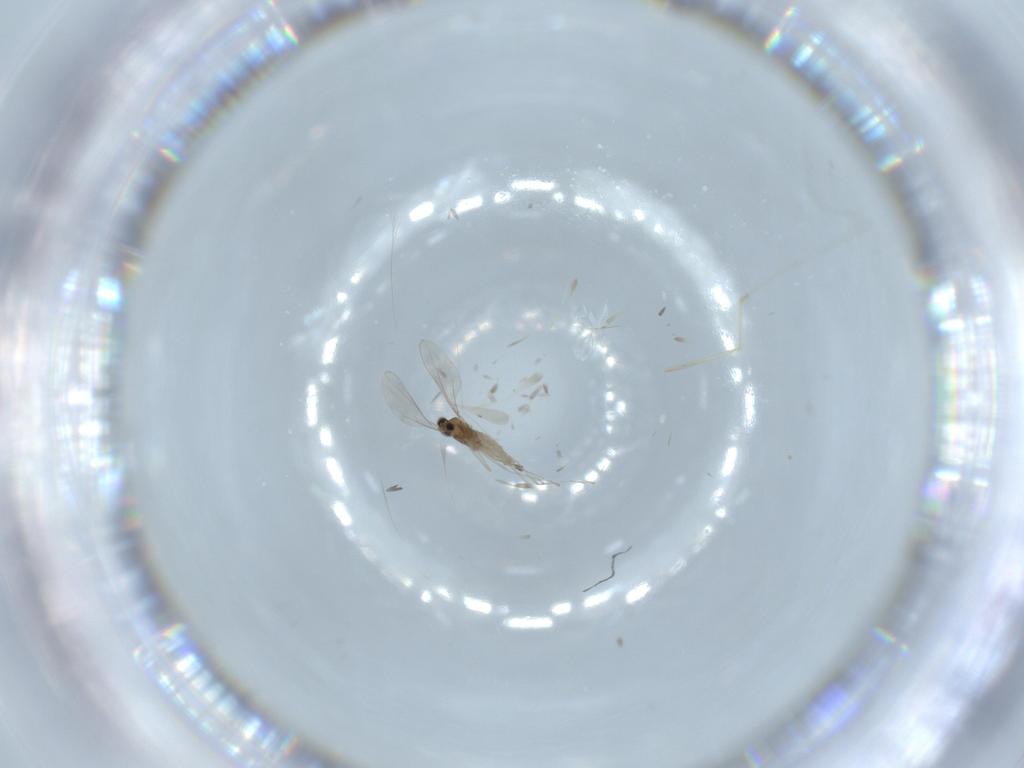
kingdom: Animalia
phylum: Arthropoda
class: Insecta
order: Diptera
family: Cecidomyiidae
